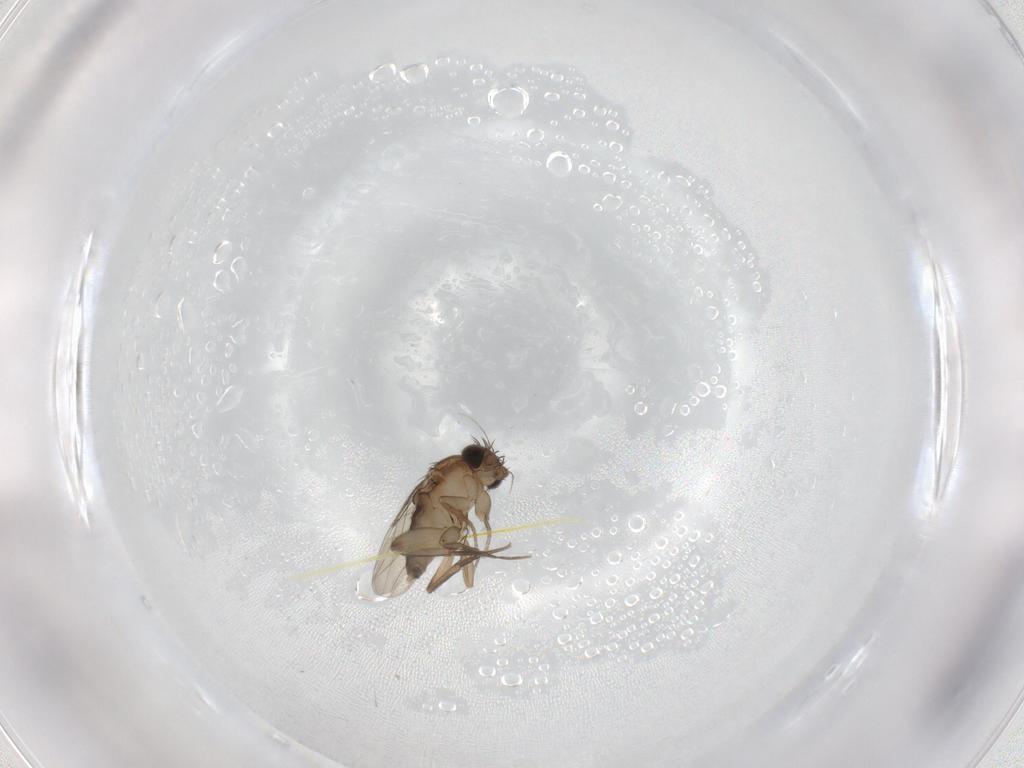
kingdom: Animalia
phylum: Arthropoda
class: Insecta
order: Diptera
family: Phoridae
